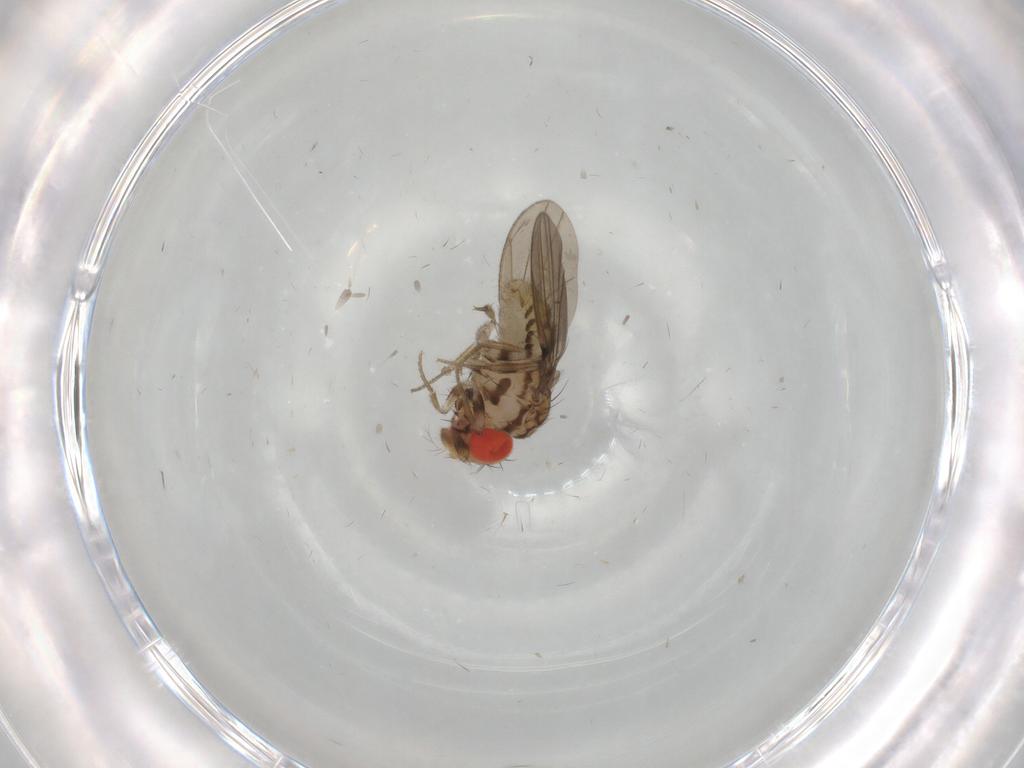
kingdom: Animalia
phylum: Arthropoda
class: Insecta
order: Diptera
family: Drosophilidae
